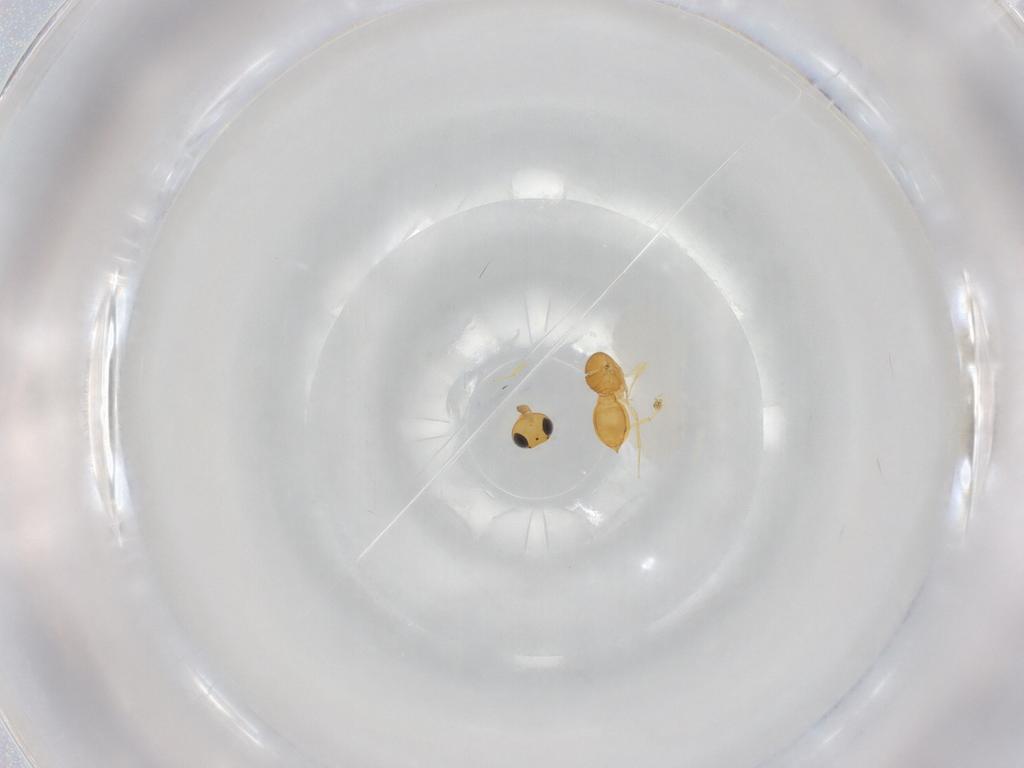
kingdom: Animalia
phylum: Arthropoda
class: Insecta
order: Hymenoptera
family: Scelionidae
